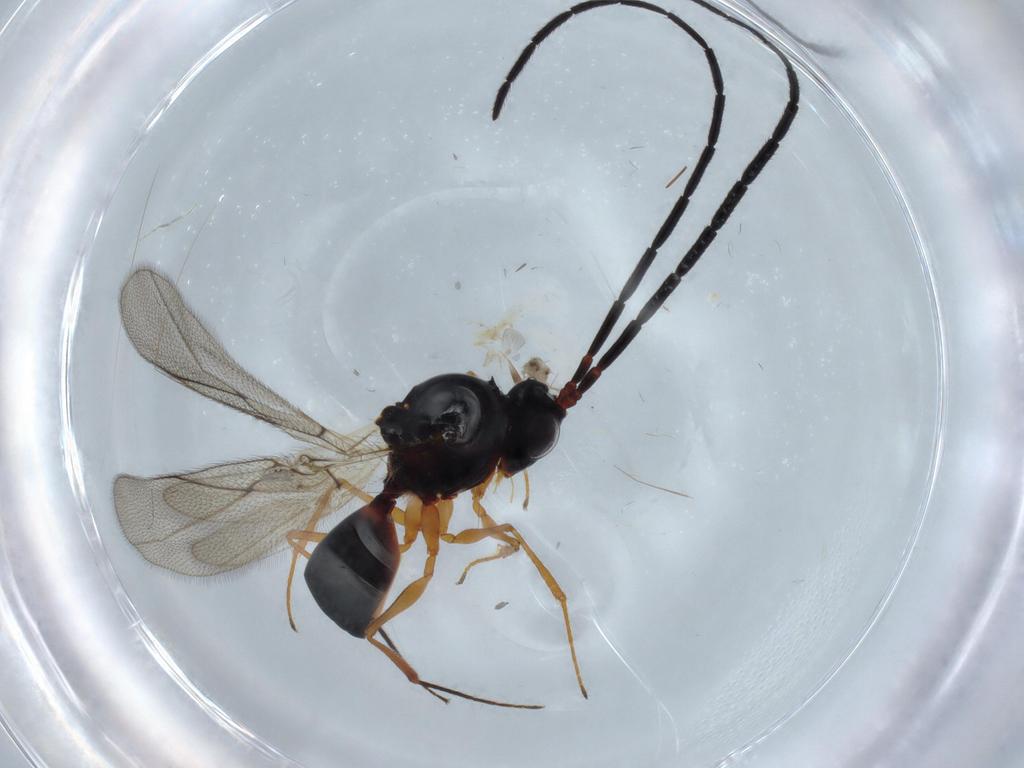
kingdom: Animalia
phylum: Arthropoda
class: Insecta
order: Hymenoptera
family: Figitidae
